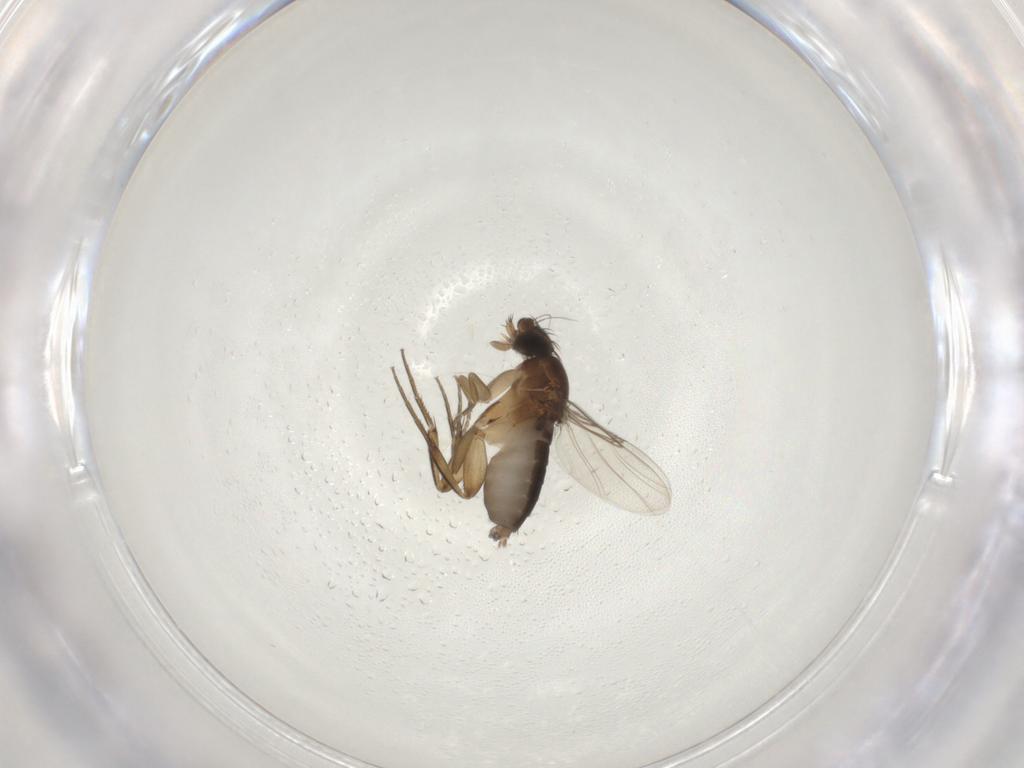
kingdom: Animalia
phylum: Arthropoda
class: Insecta
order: Diptera
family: Phoridae
